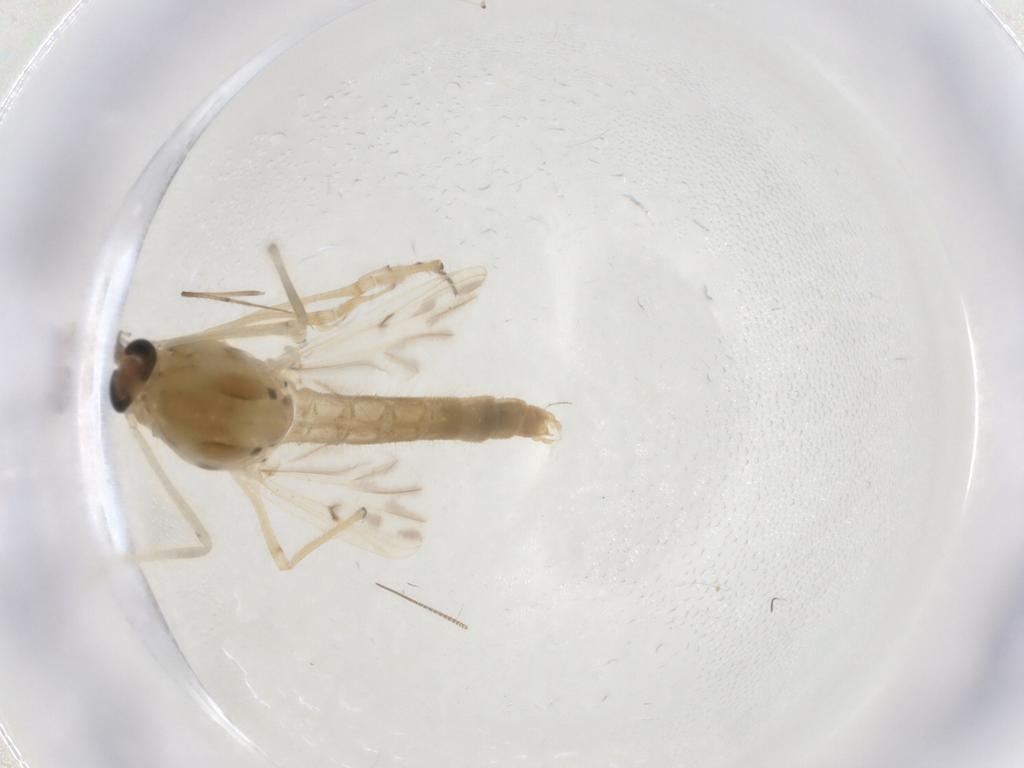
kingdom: Animalia
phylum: Arthropoda
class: Insecta
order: Diptera
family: Chironomidae
